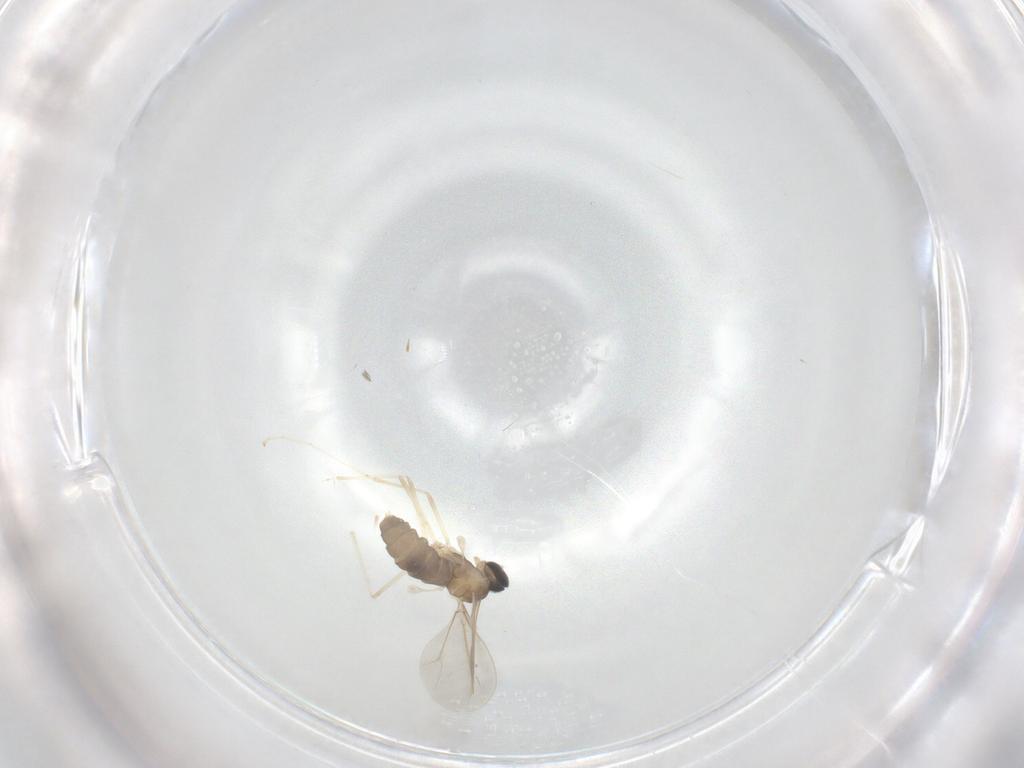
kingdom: Animalia
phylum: Arthropoda
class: Insecta
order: Diptera
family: Cecidomyiidae
